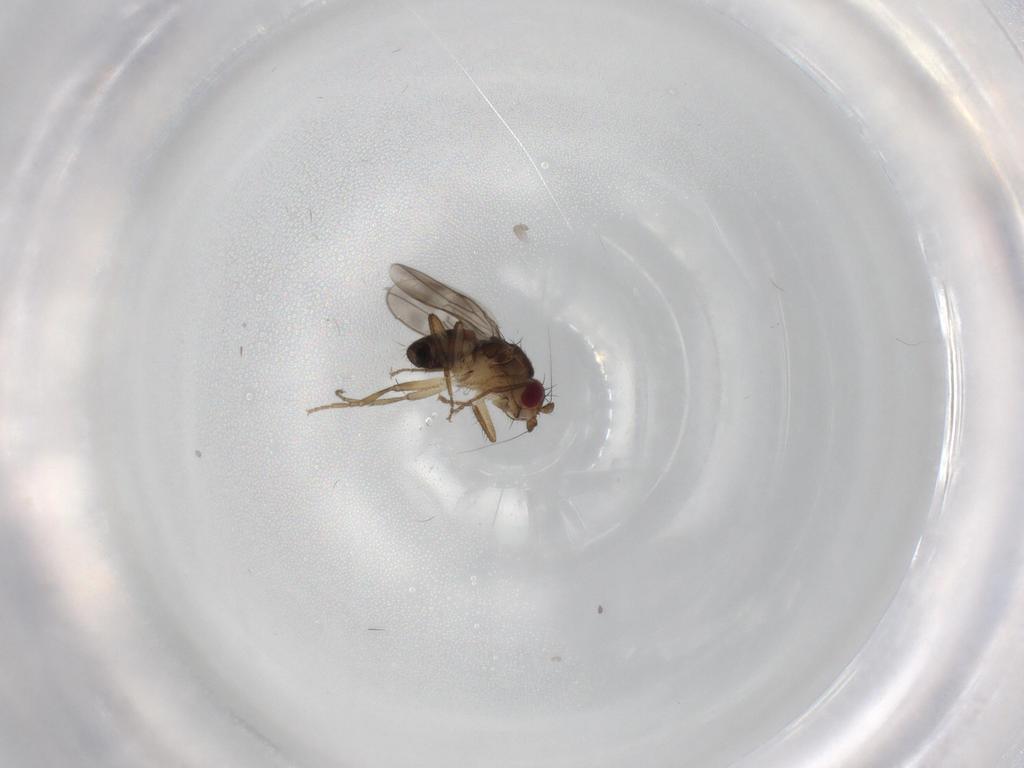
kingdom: Animalia
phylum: Arthropoda
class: Insecta
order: Diptera
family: Sphaeroceridae
